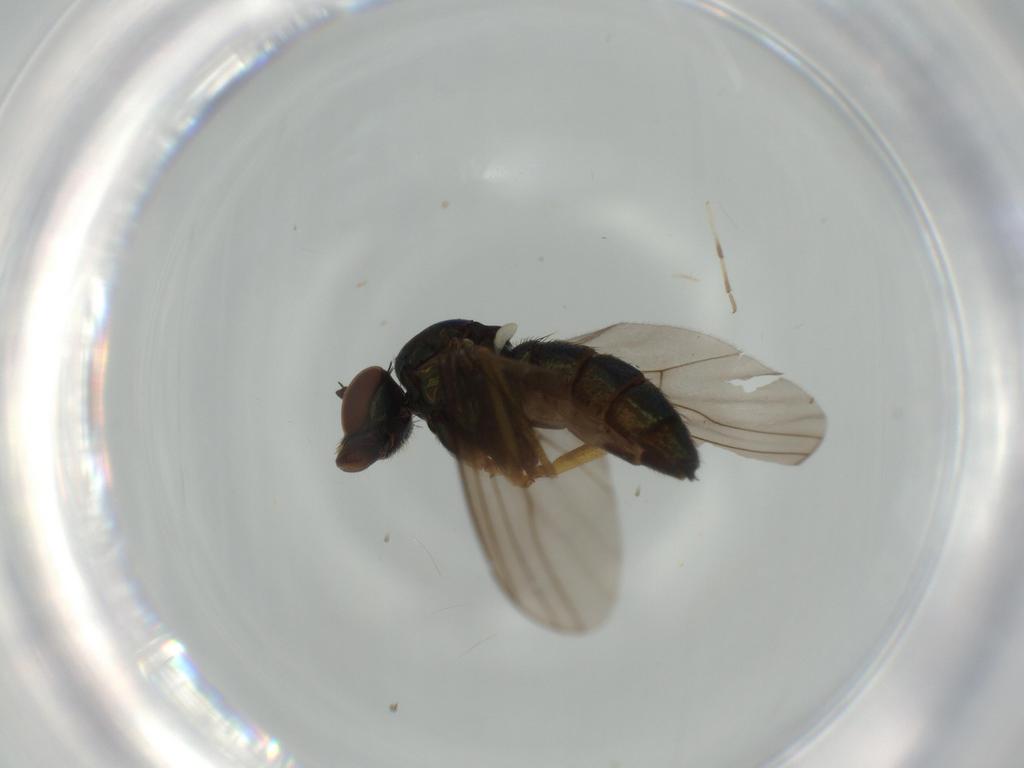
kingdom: Animalia
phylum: Arthropoda
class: Insecta
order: Diptera
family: Dolichopodidae
